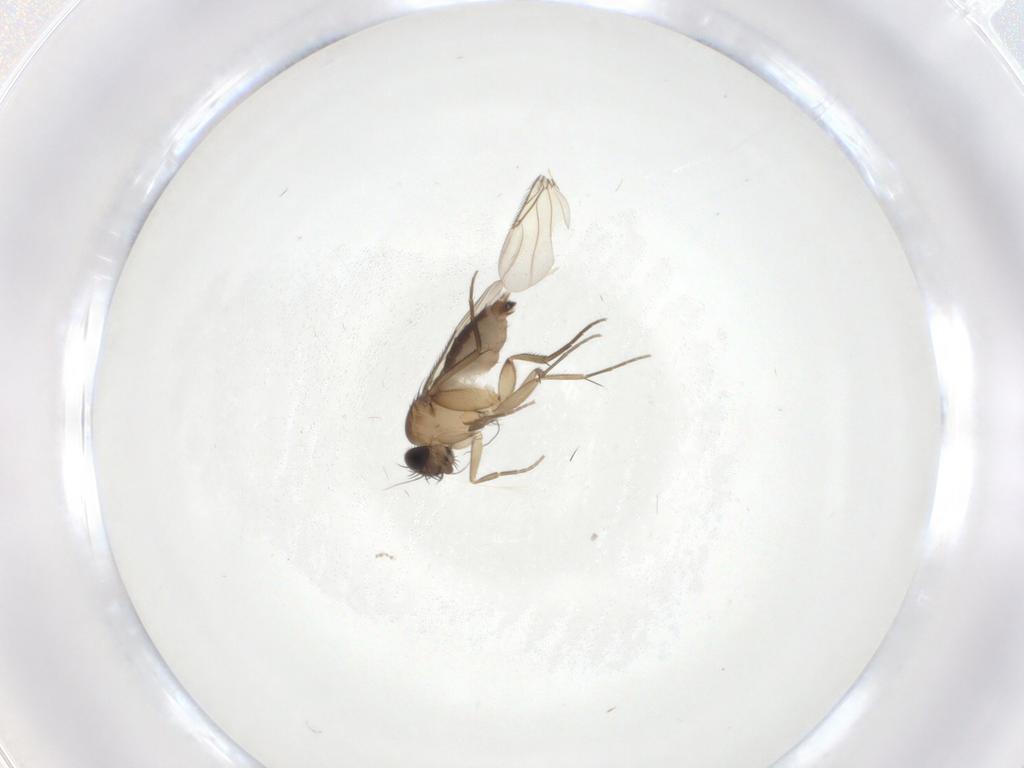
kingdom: Animalia
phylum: Arthropoda
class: Insecta
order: Diptera
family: Phoridae
